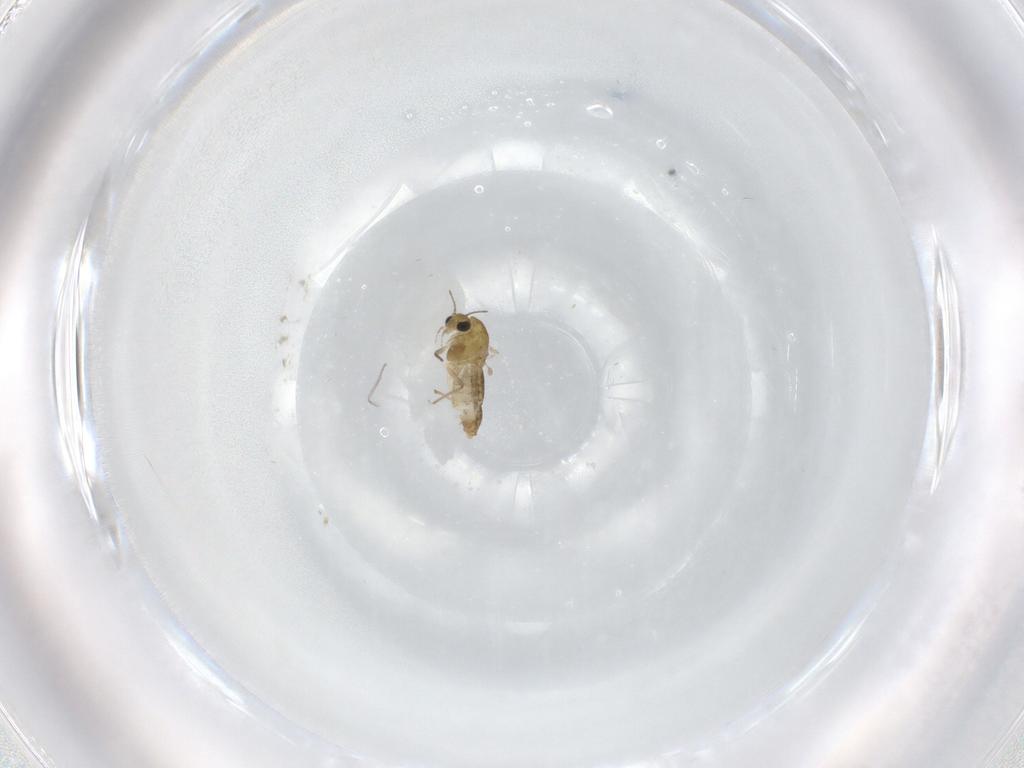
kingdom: Animalia
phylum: Arthropoda
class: Insecta
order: Diptera
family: Chironomidae
